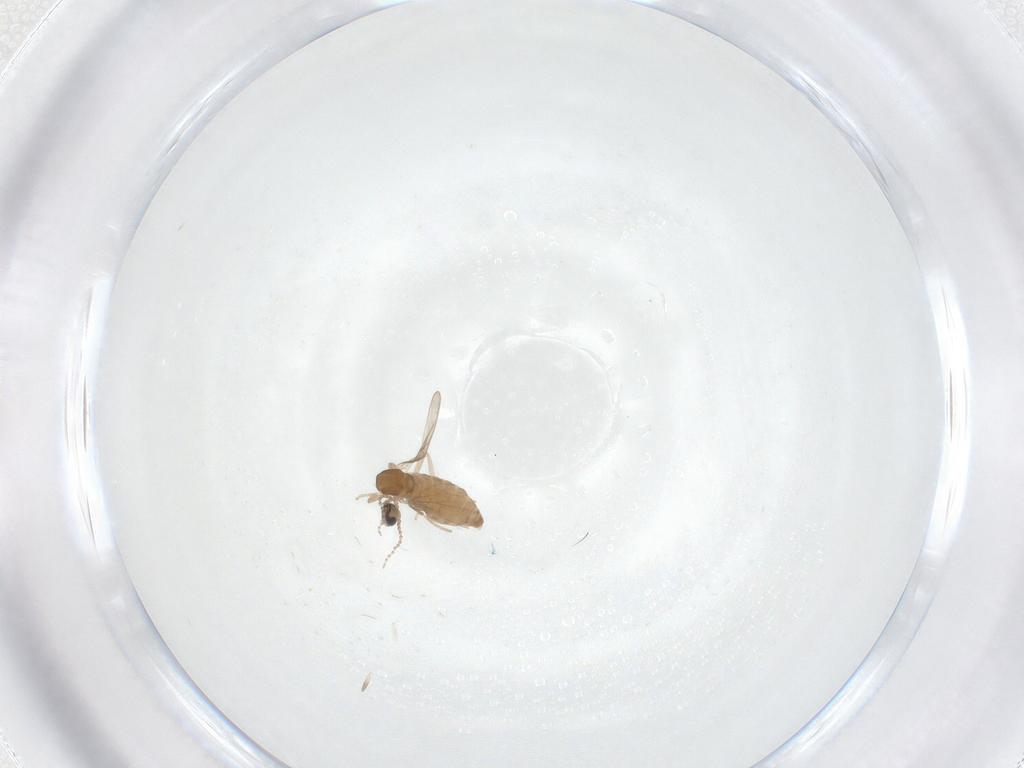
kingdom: Animalia
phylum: Arthropoda
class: Insecta
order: Diptera
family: Cecidomyiidae
